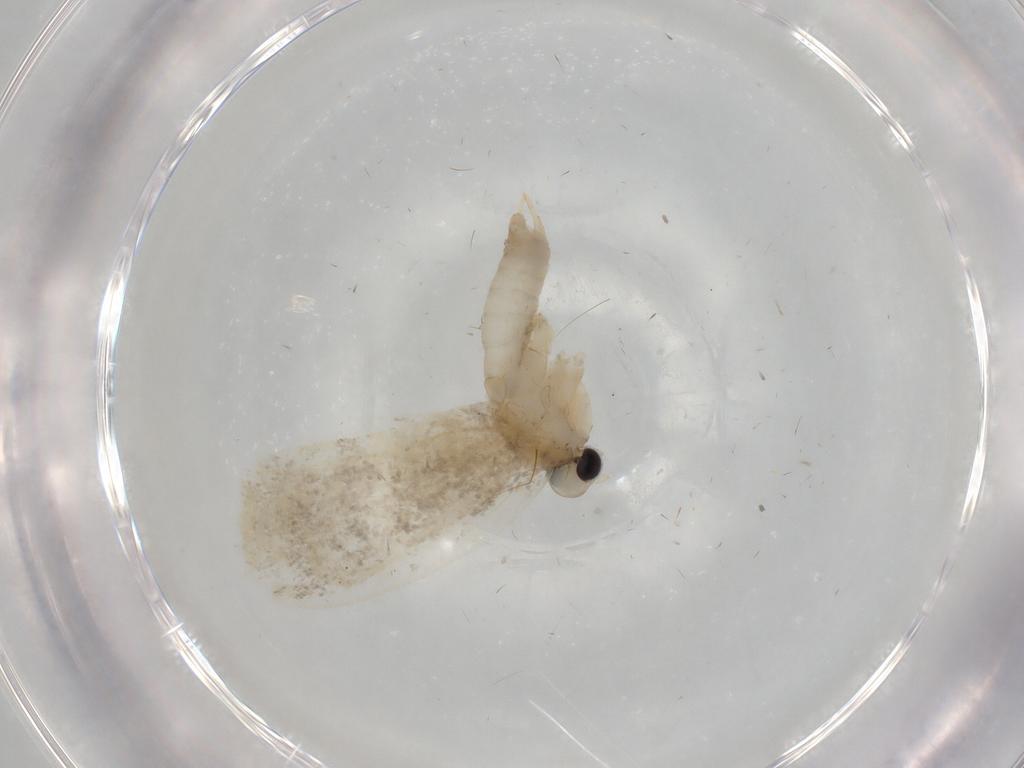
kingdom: Animalia
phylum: Arthropoda
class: Insecta
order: Lepidoptera
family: Psychidae
